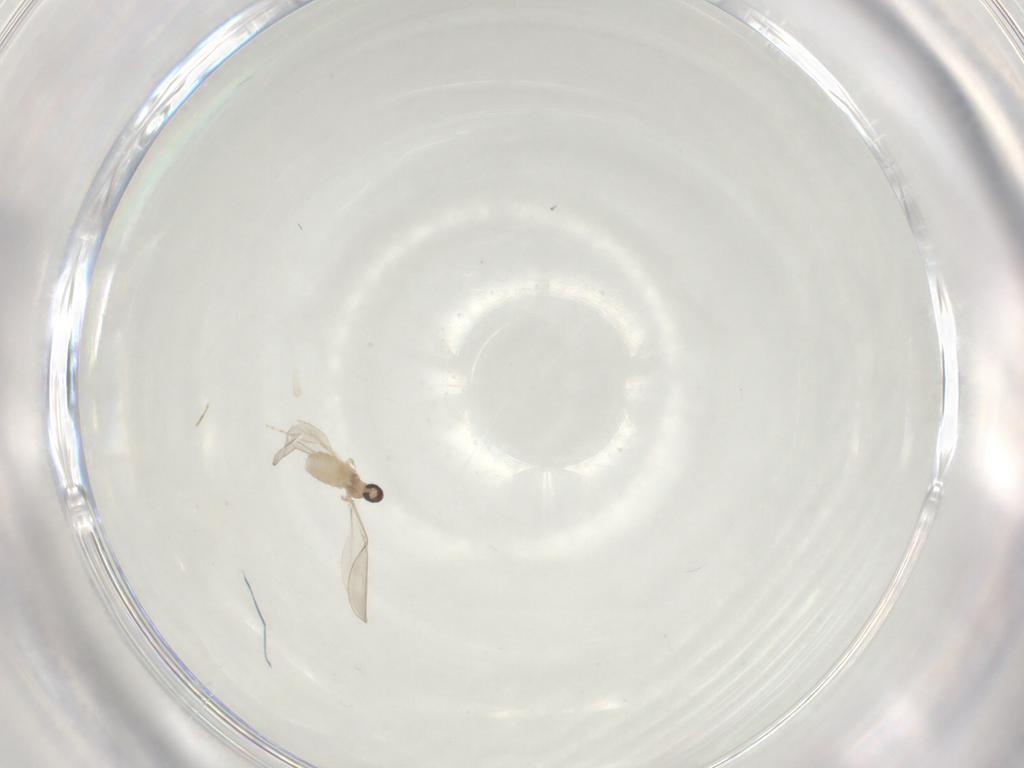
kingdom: Animalia
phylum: Arthropoda
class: Insecta
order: Diptera
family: Cecidomyiidae
